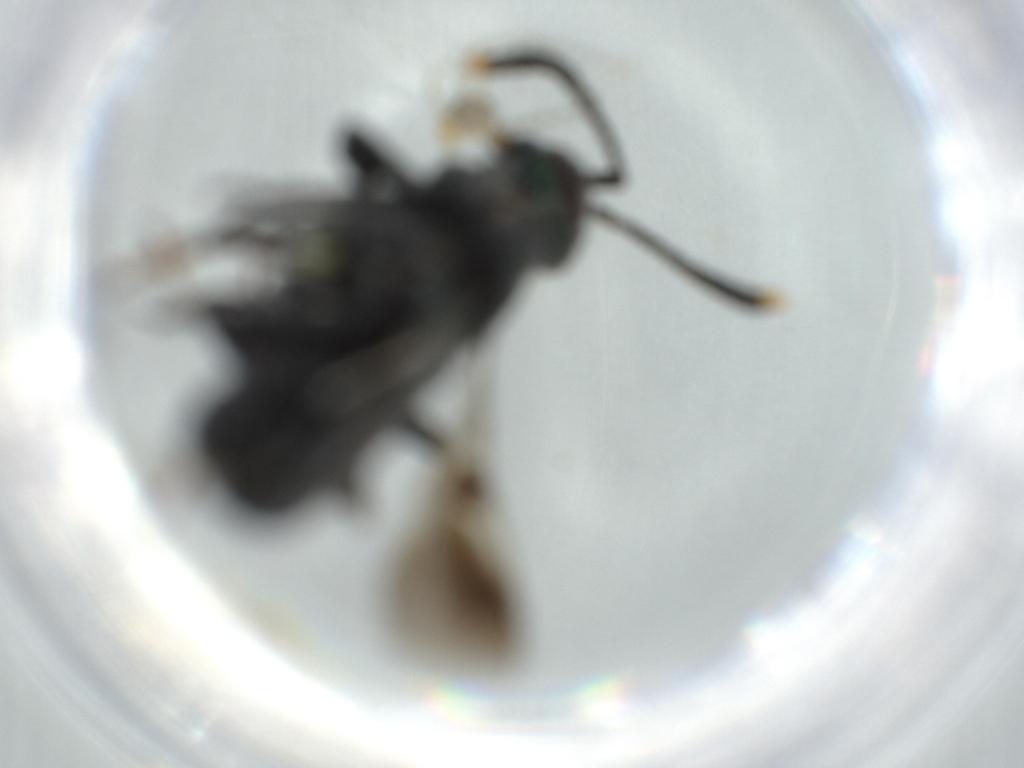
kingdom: Animalia
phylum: Arthropoda
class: Insecta
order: Hymenoptera
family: Eupelmidae
